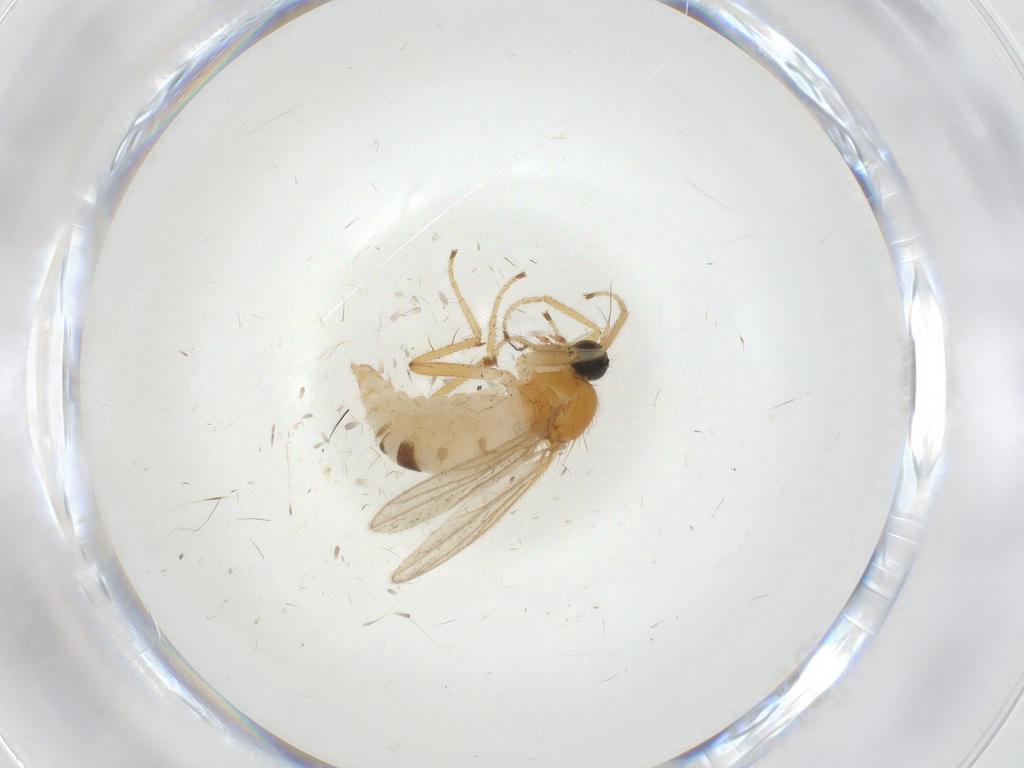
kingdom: Animalia
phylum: Arthropoda
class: Insecta
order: Diptera
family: Hybotidae
